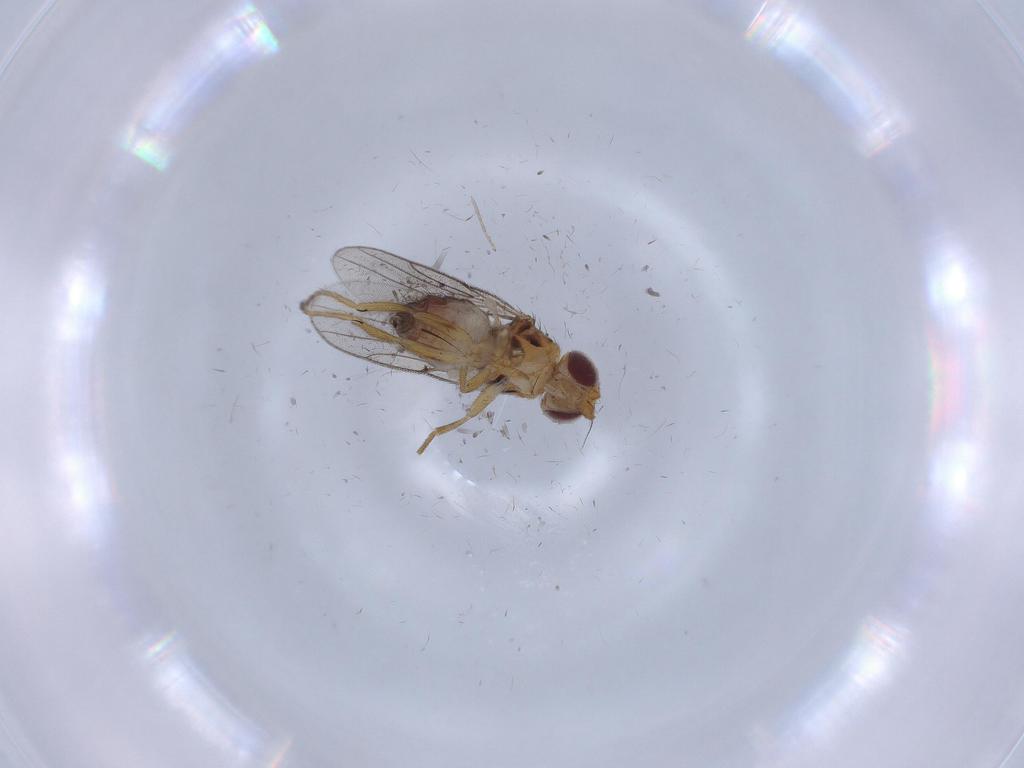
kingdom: Animalia
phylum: Arthropoda
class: Insecta
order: Diptera
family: Chloropidae
